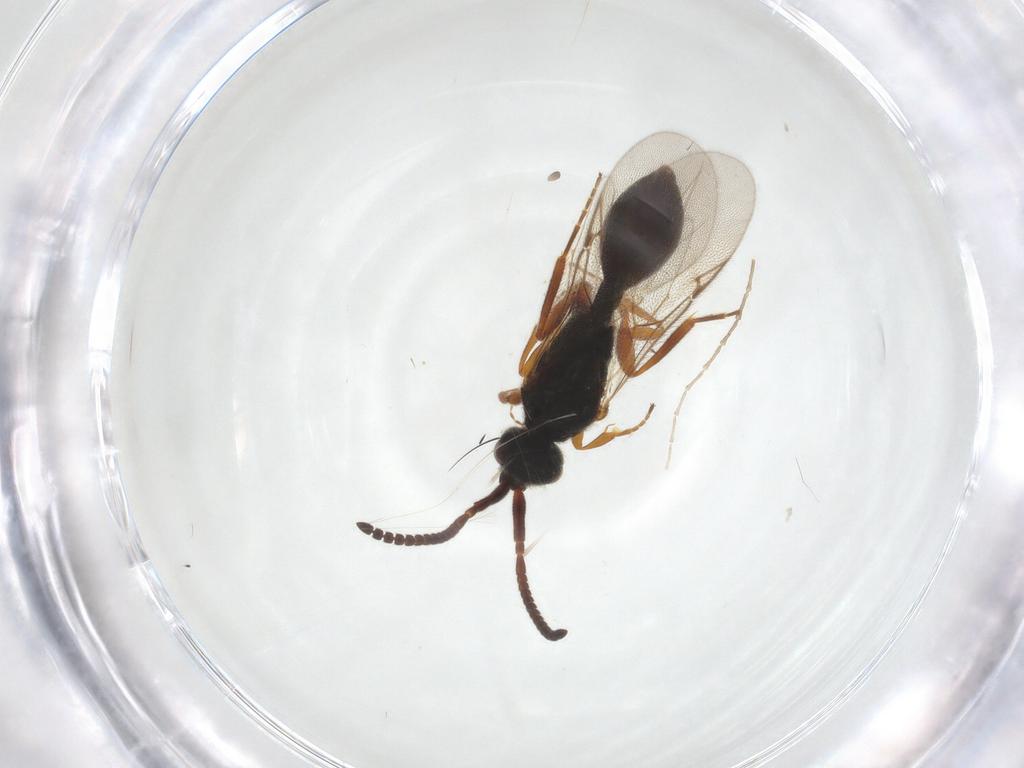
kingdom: Animalia
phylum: Arthropoda
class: Insecta
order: Hymenoptera
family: Diapriidae
